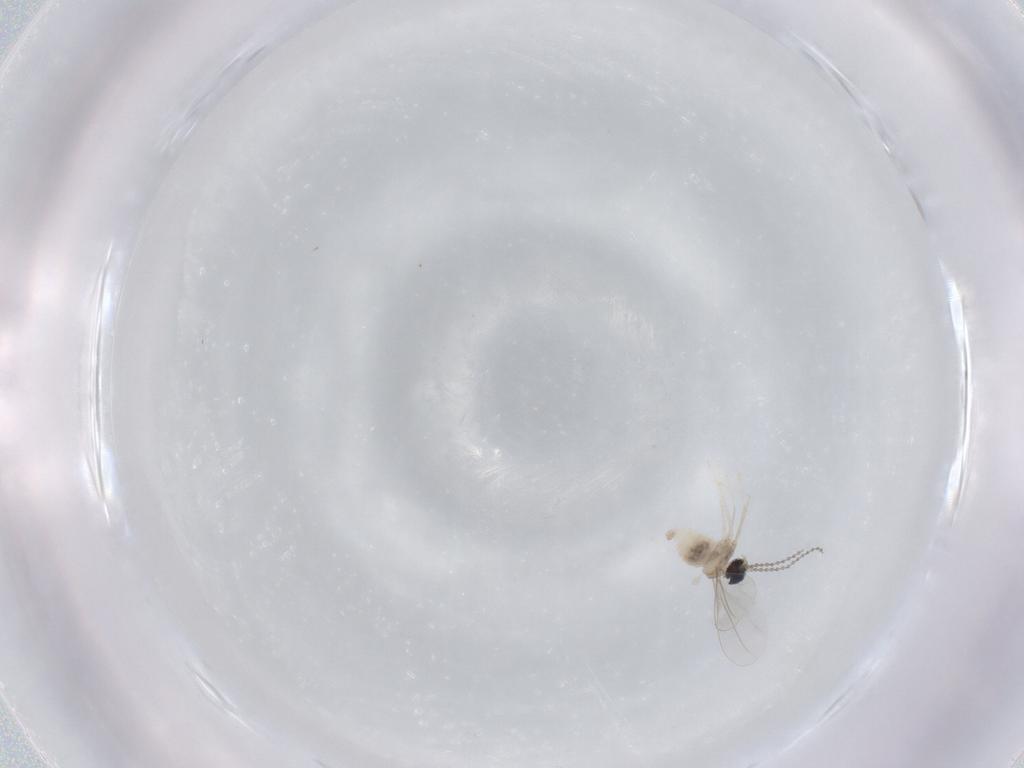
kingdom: Animalia
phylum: Arthropoda
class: Insecta
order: Diptera
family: Cecidomyiidae
